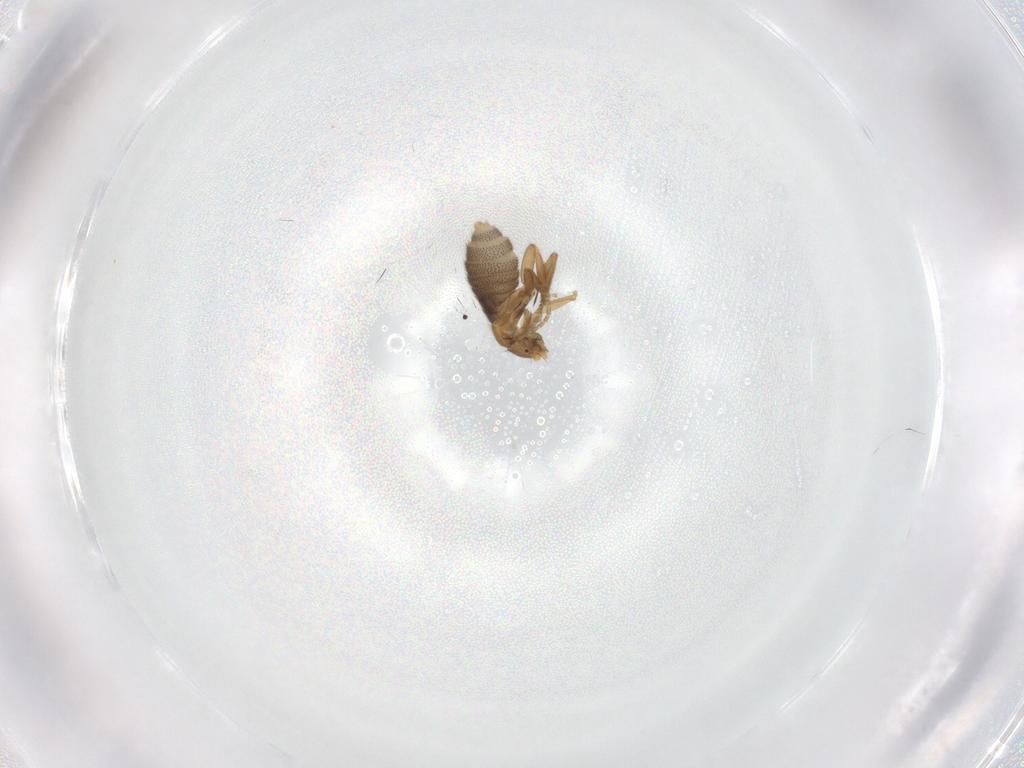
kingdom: Animalia
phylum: Arthropoda
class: Insecta
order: Diptera
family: Phoridae
